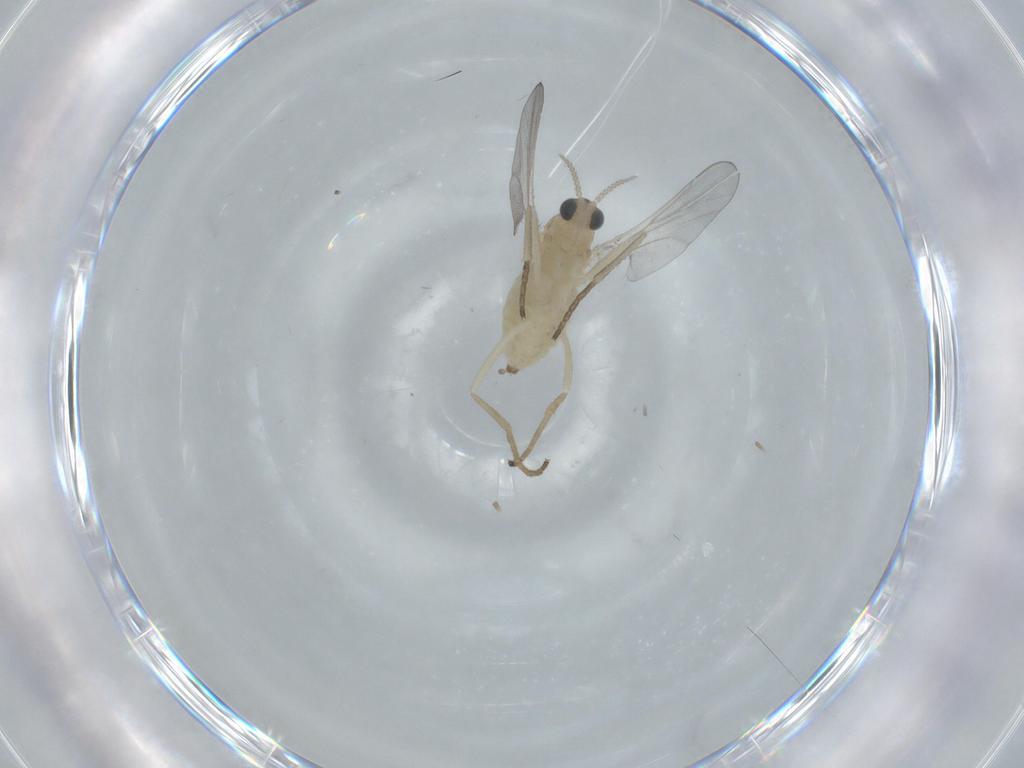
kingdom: Animalia
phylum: Arthropoda
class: Insecta
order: Diptera
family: Cecidomyiidae
